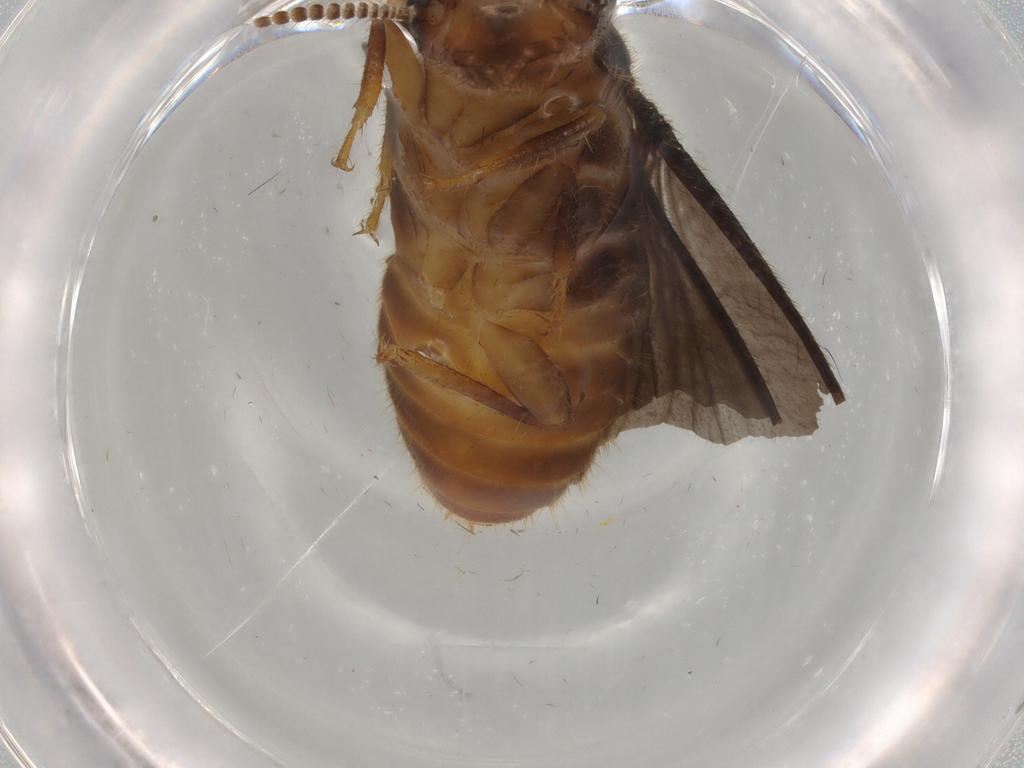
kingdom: Animalia
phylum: Arthropoda
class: Insecta
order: Diptera
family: Ceratopogonidae
